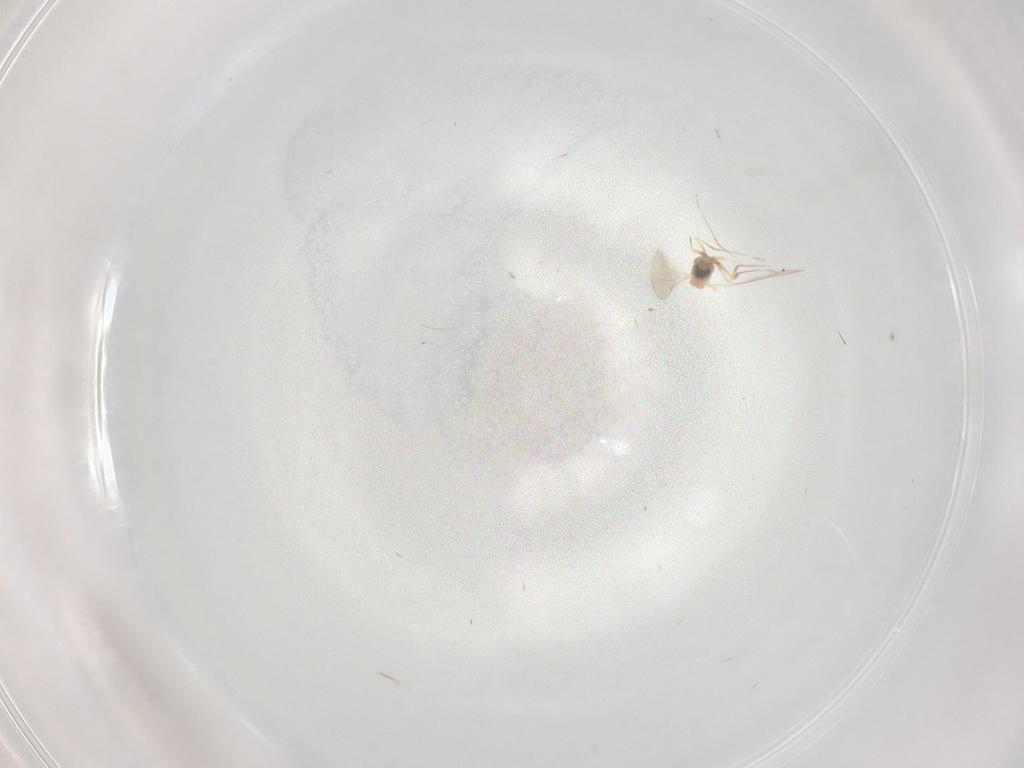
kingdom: Animalia
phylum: Arthropoda
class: Insecta
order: Diptera
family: Cecidomyiidae
